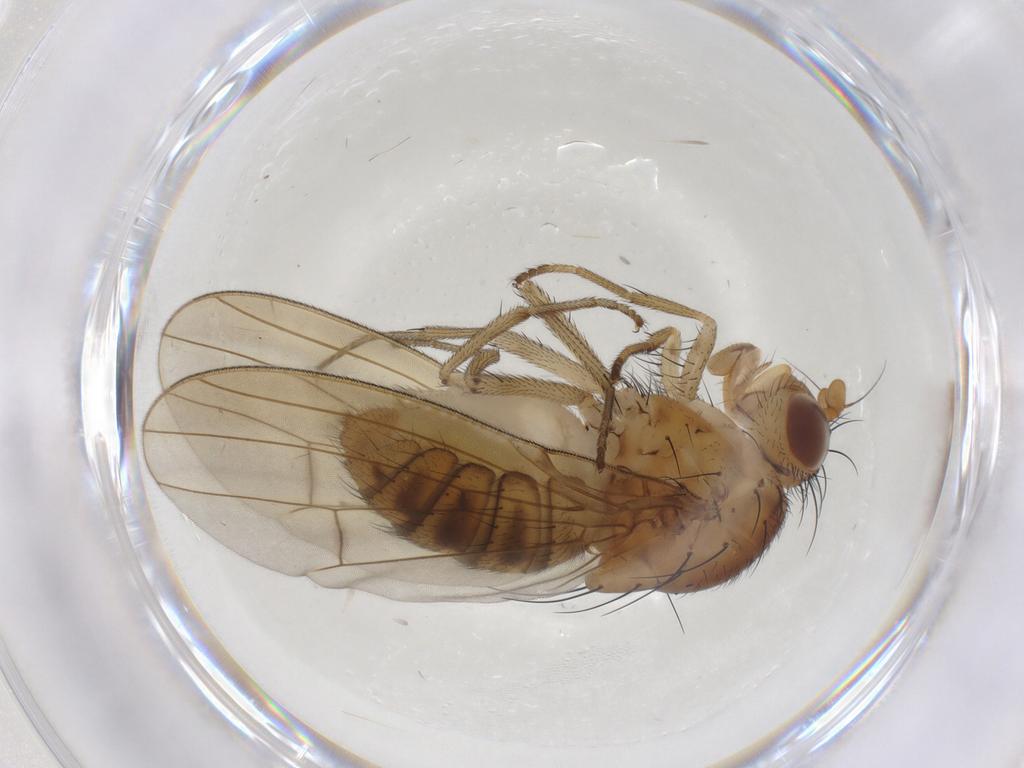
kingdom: Animalia
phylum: Arthropoda
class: Insecta
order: Diptera
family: Lauxaniidae
